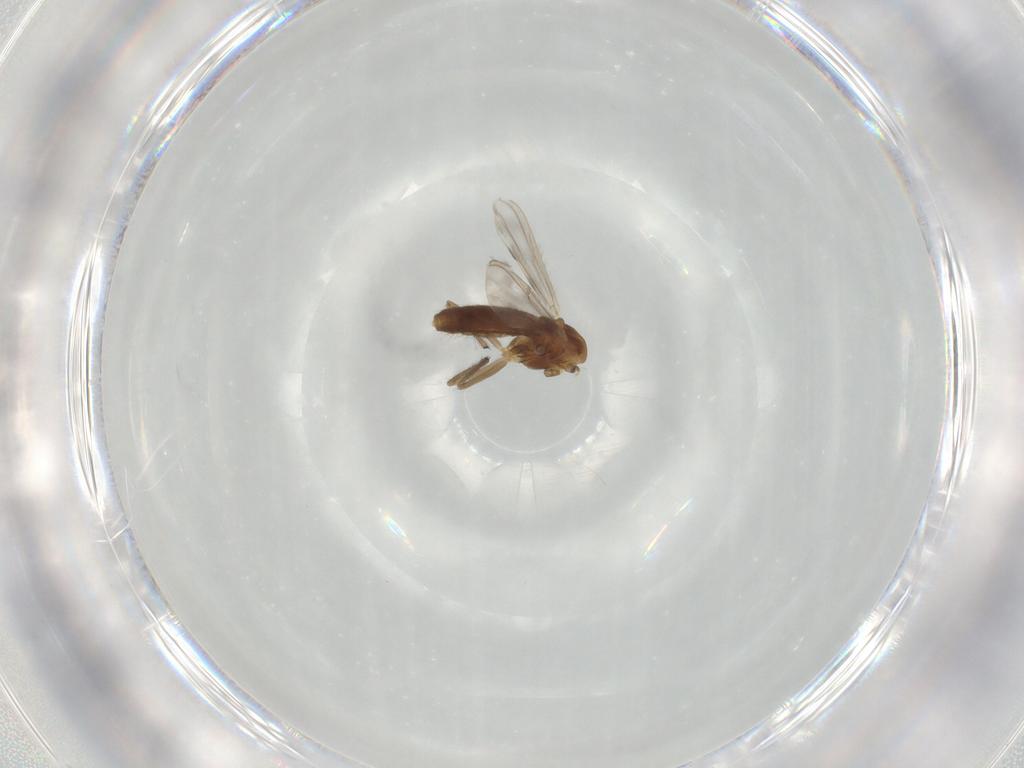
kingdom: Animalia
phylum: Arthropoda
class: Insecta
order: Diptera
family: Chironomidae
